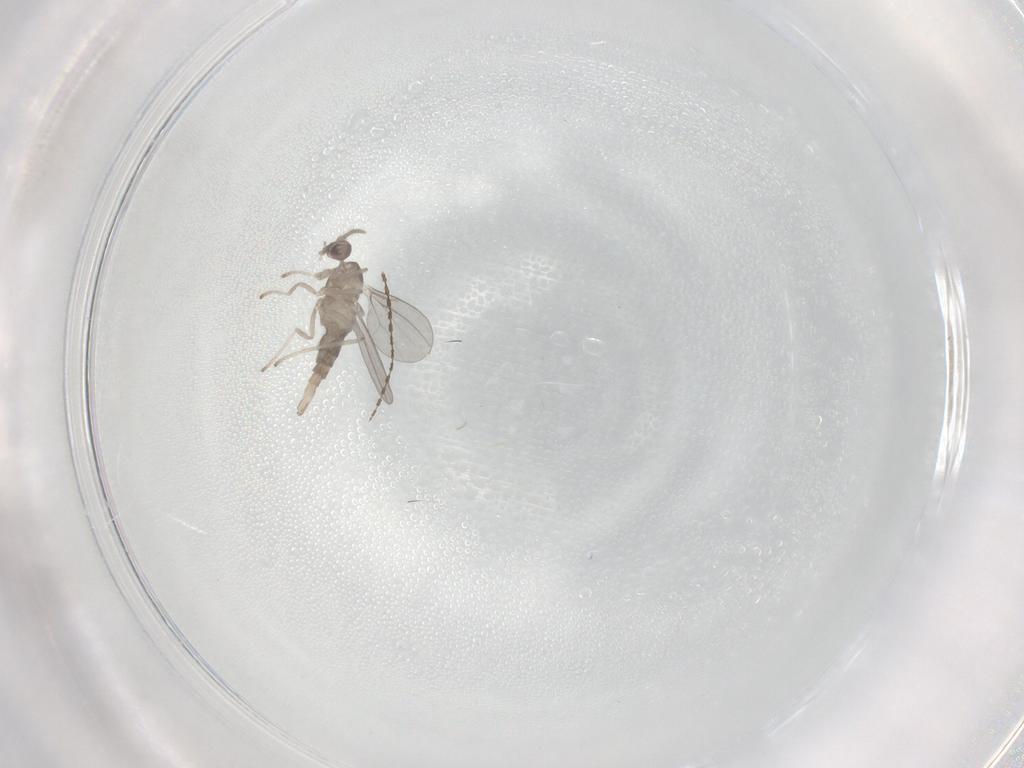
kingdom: Animalia
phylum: Arthropoda
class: Insecta
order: Diptera
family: Cecidomyiidae
